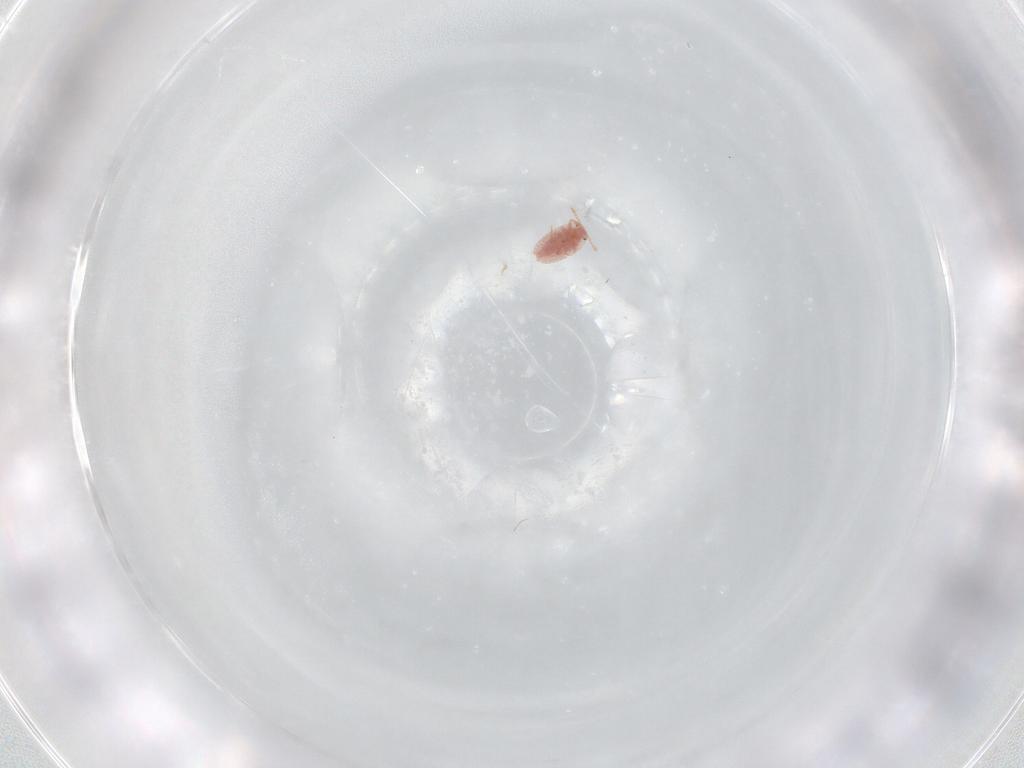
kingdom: Animalia
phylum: Arthropoda
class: Insecta
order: Hemiptera
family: Cicadellidae
